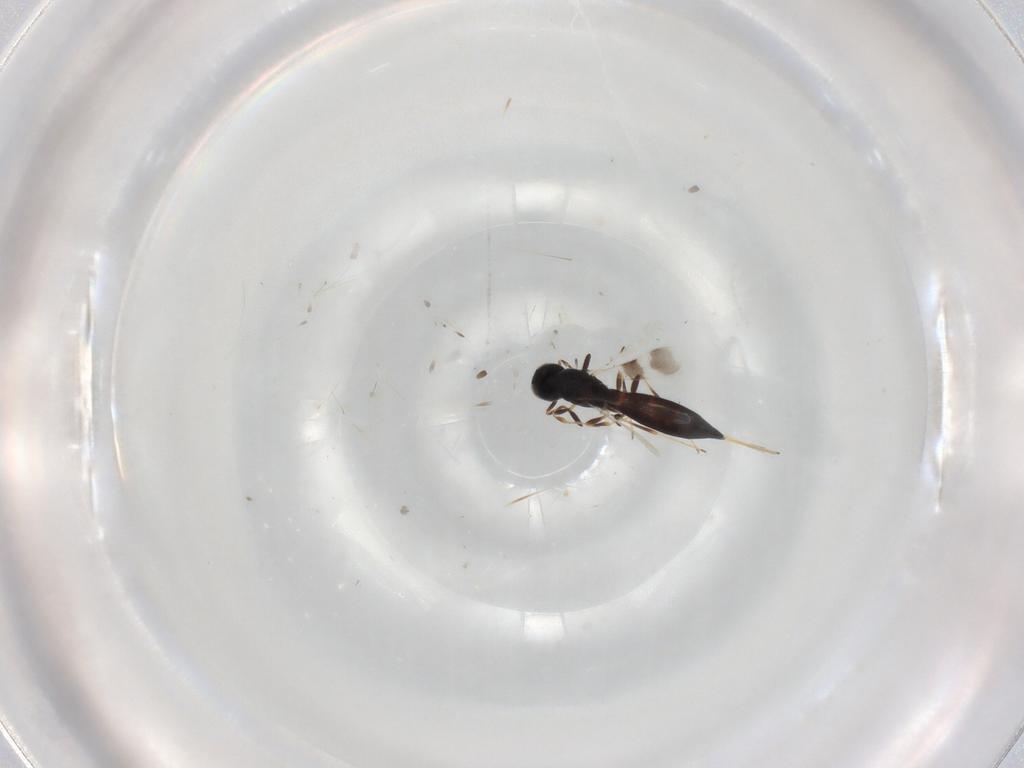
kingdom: Animalia
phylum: Arthropoda
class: Insecta
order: Hymenoptera
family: Scelionidae
